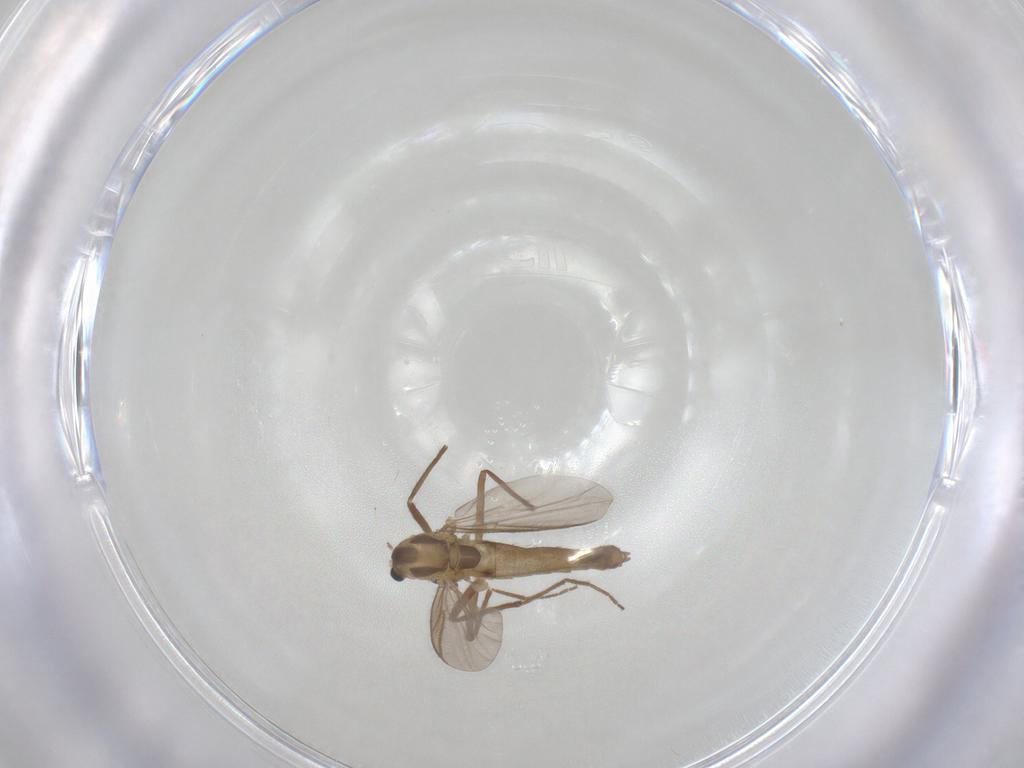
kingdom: Animalia
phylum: Arthropoda
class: Insecta
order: Diptera
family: Chironomidae
